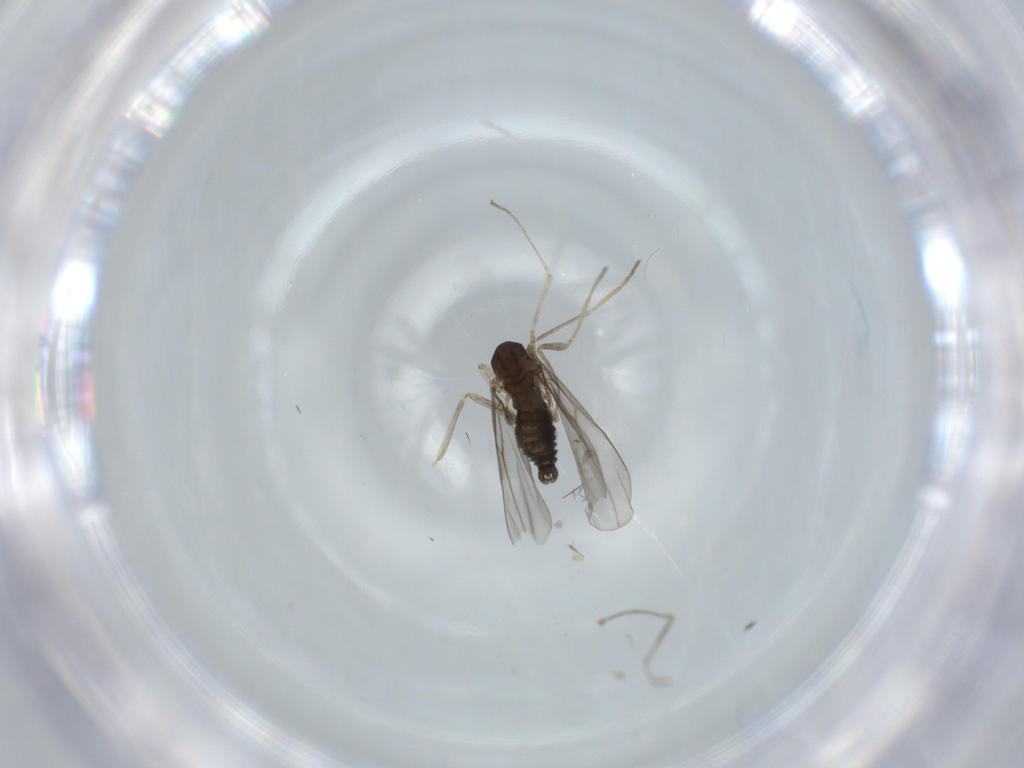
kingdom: Animalia
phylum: Arthropoda
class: Insecta
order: Diptera
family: Cecidomyiidae
